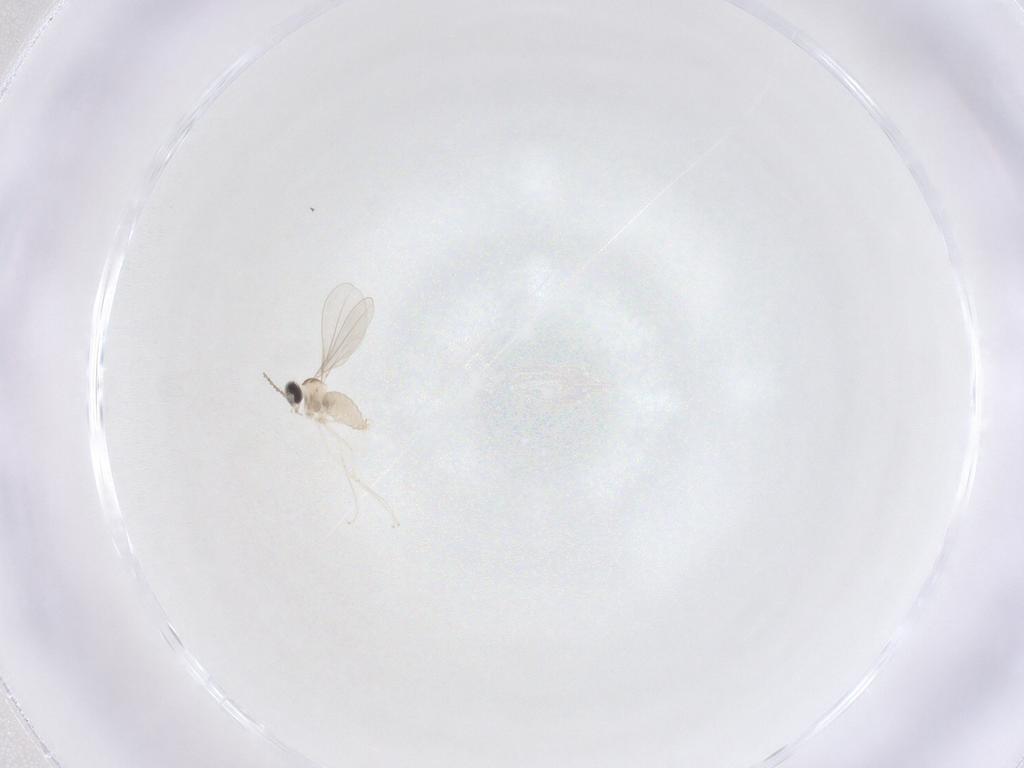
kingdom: Animalia
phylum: Arthropoda
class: Insecta
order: Diptera
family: Cecidomyiidae
